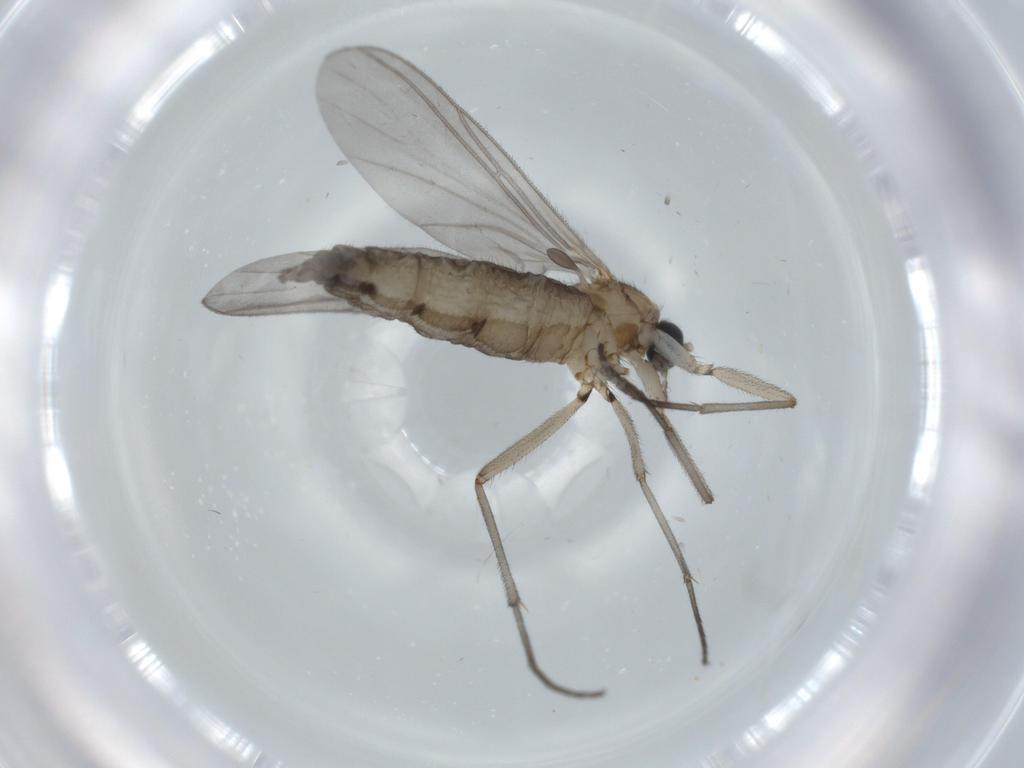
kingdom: Animalia
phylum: Arthropoda
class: Insecta
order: Diptera
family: Sciaridae
